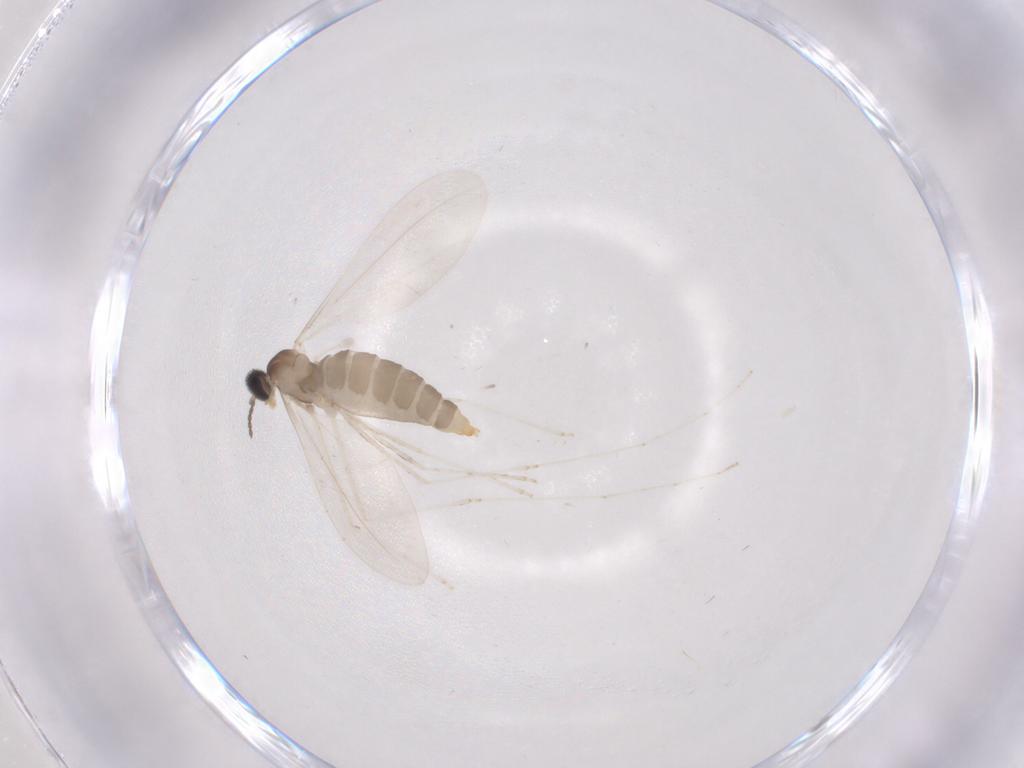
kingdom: Animalia
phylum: Arthropoda
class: Insecta
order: Diptera
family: Cecidomyiidae
